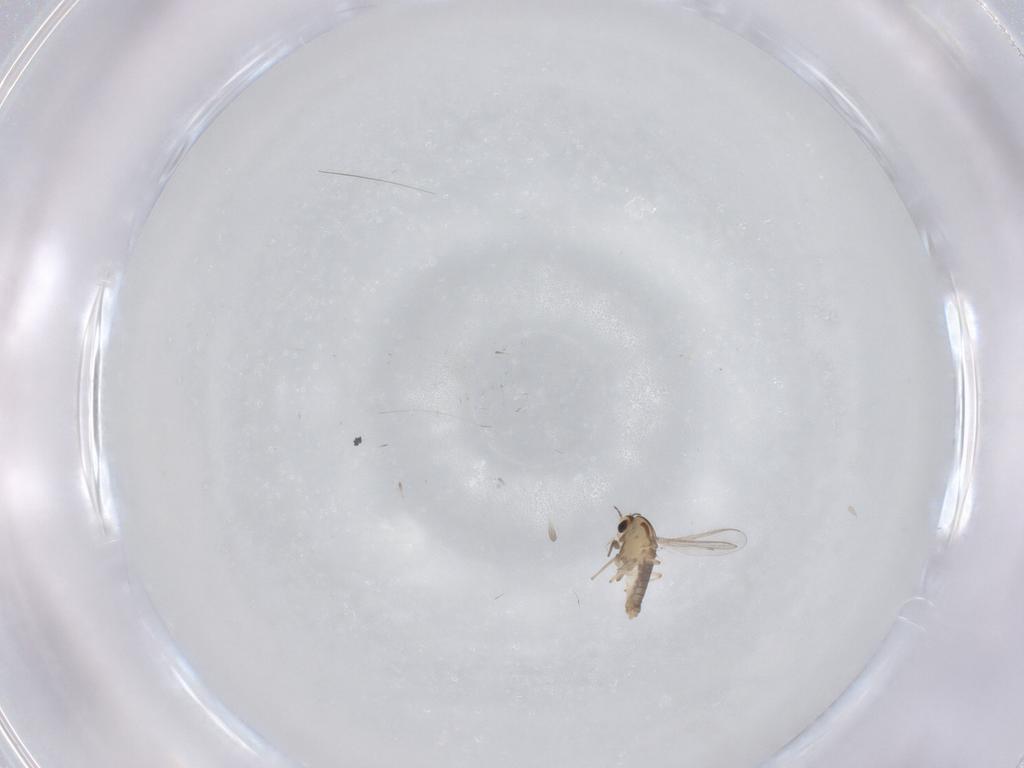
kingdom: Animalia
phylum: Arthropoda
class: Insecta
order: Diptera
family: Chironomidae
